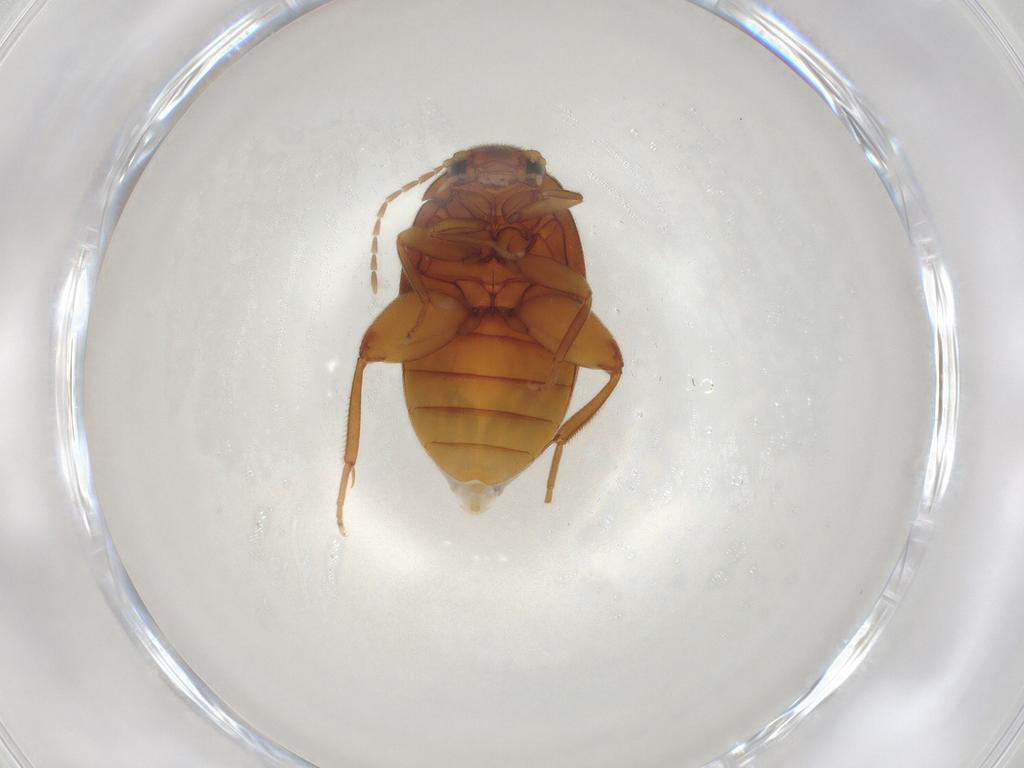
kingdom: Animalia
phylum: Arthropoda
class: Insecta
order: Coleoptera
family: Scirtidae
